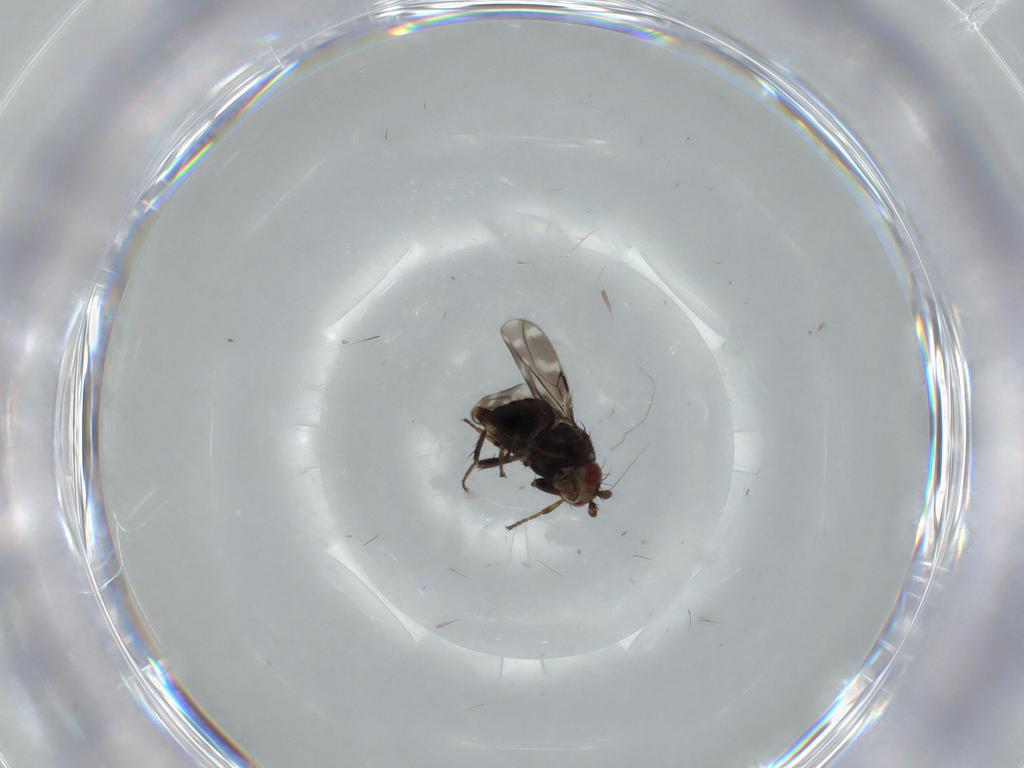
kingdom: Animalia
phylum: Arthropoda
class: Insecta
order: Diptera
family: Sphaeroceridae
